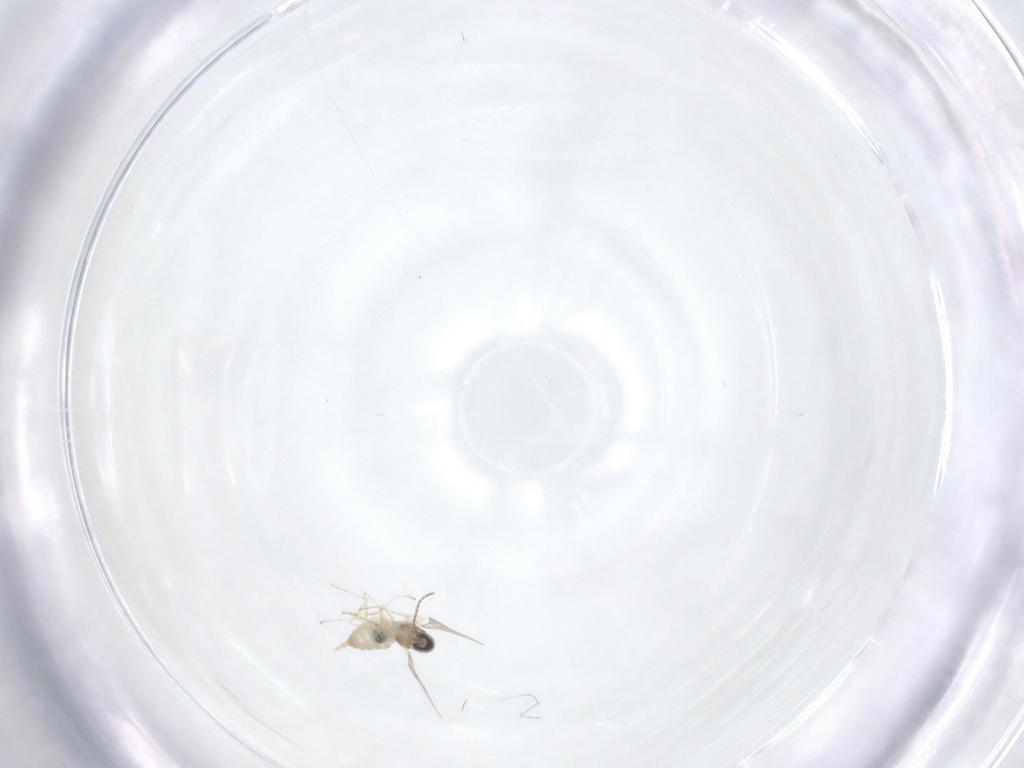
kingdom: Animalia
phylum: Arthropoda
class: Insecta
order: Diptera
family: Cecidomyiidae
